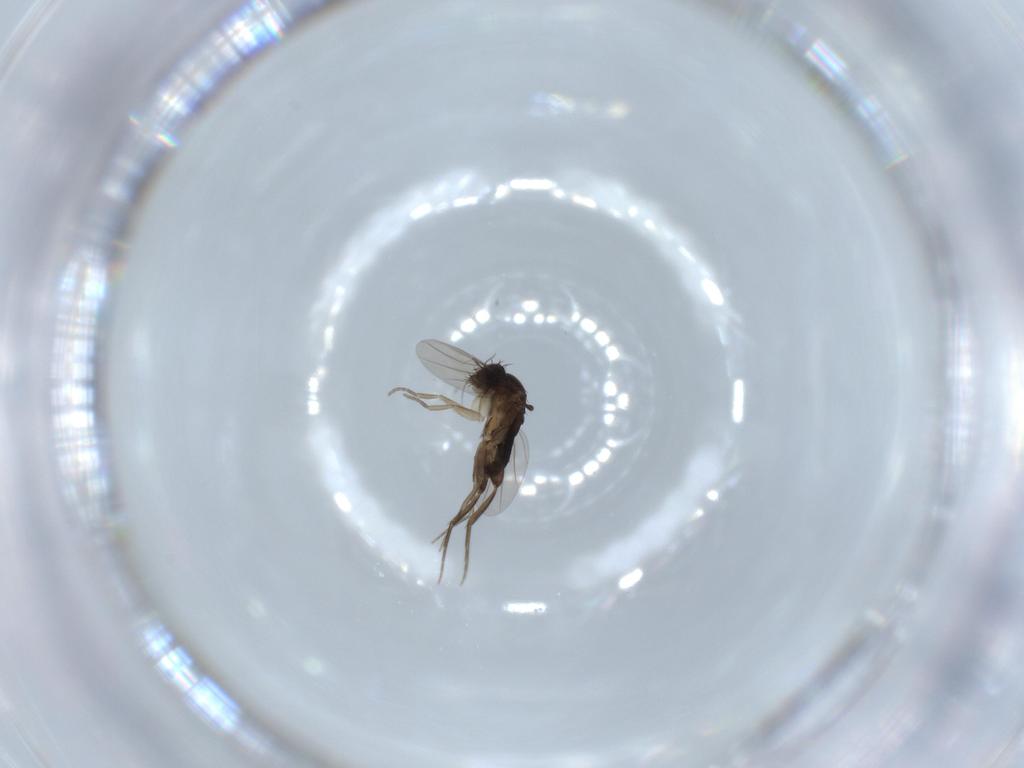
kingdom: Animalia
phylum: Arthropoda
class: Insecta
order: Diptera
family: Phoridae
